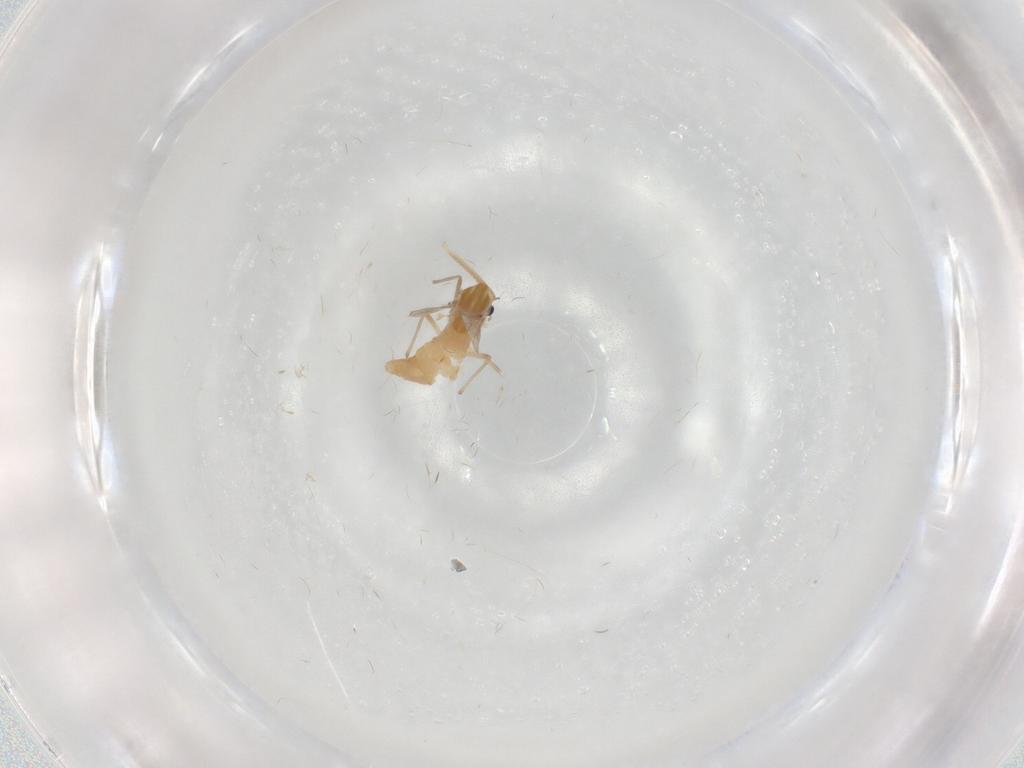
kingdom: Animalia
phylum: Arthropoda
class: Insecta
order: Diptera
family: Chironomidae
